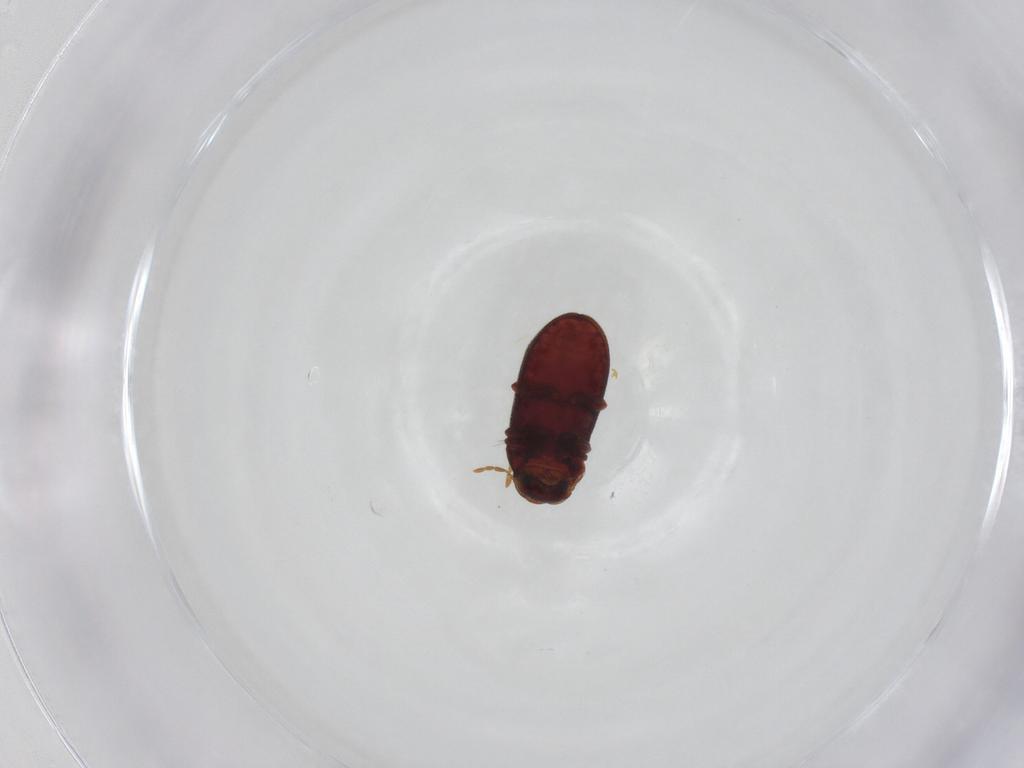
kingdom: Animalia
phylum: Arthropoda
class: Insecta
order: Coleoptera
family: Ptinidae
